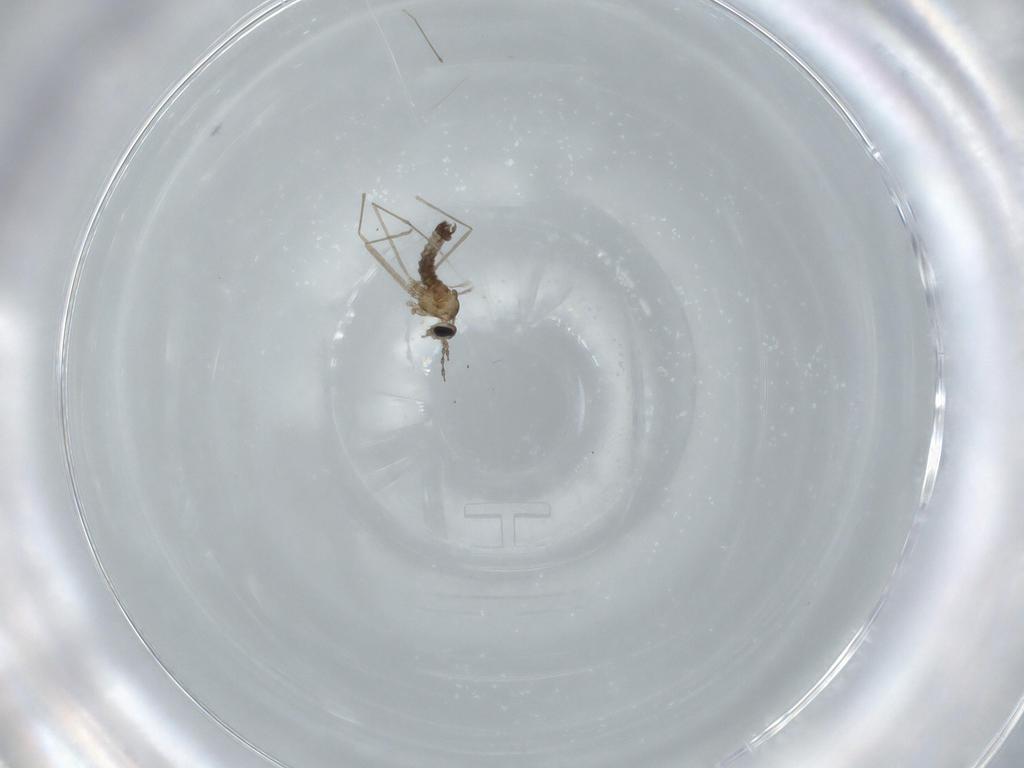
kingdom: Animalia
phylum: Arthropoda
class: Insecta
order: Diptera
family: Cecidomyiidae
